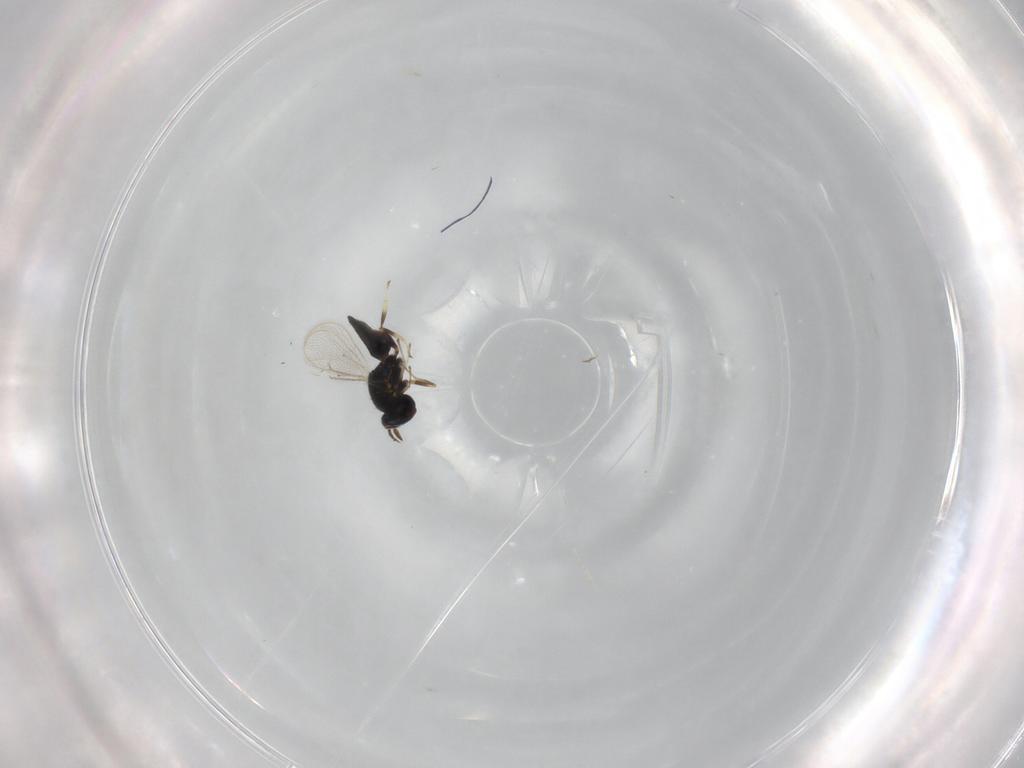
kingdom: Animalia
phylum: Arthropoda
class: Insecta
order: Hymenoptera
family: Eulophidae
